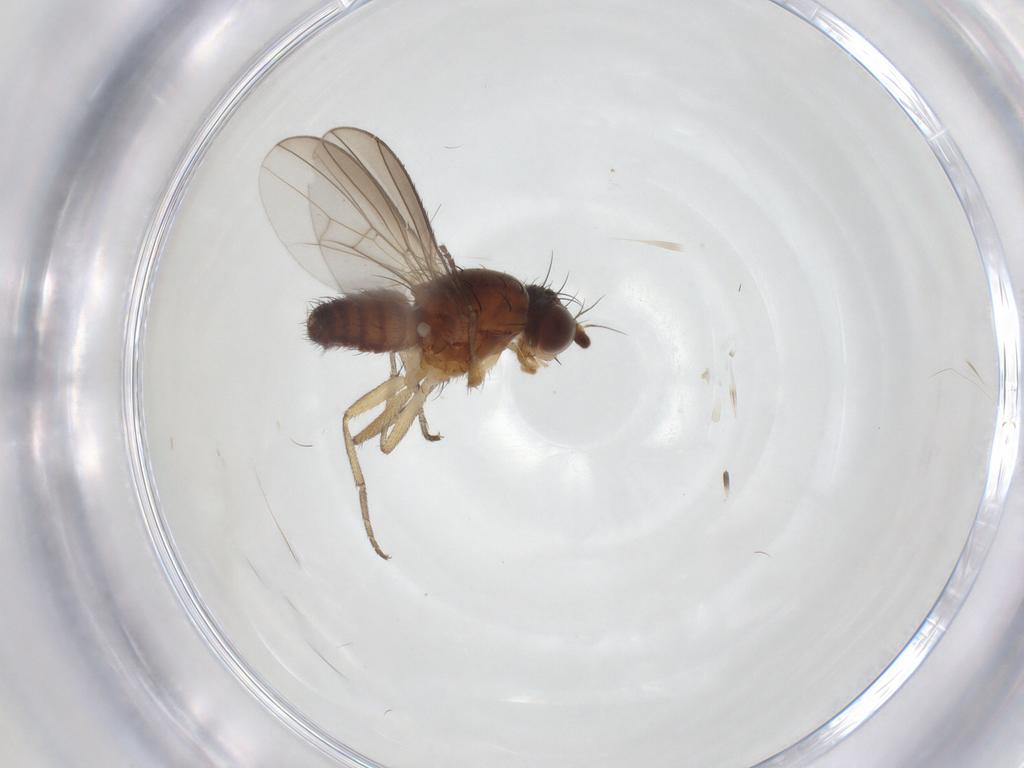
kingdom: Animalia
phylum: Arthropoda
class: Insecta
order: Diptera
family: Heleomyzidae
